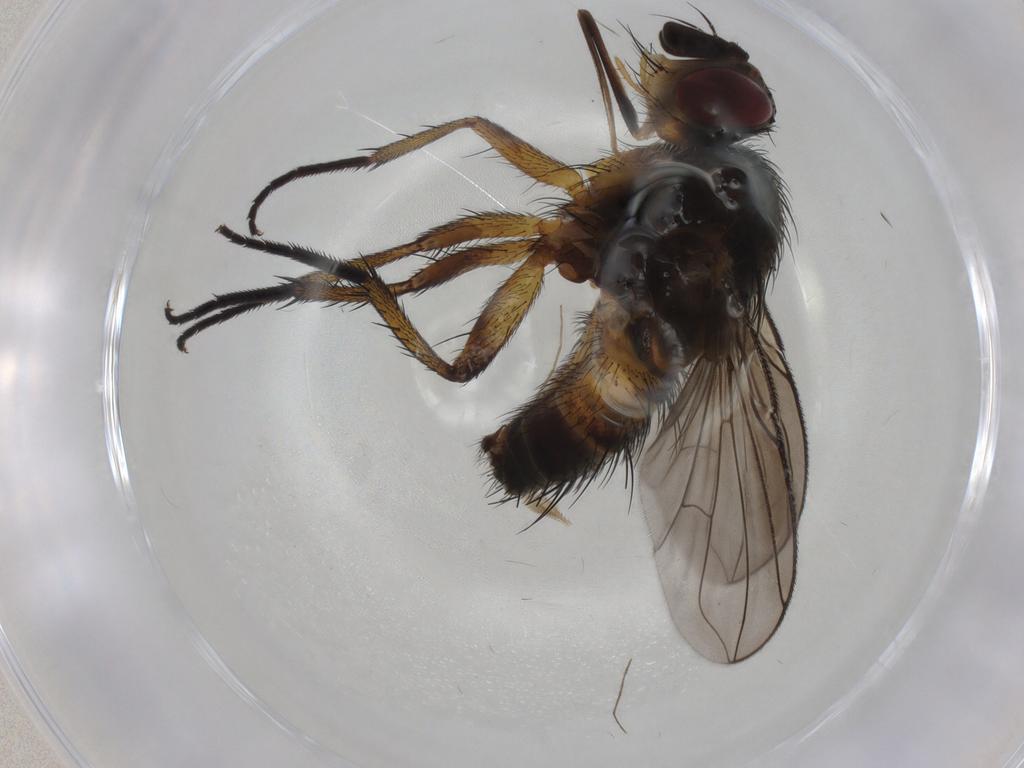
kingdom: Animalia
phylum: Arthropoda
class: Insecta
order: Diptera
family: Tachinidae
